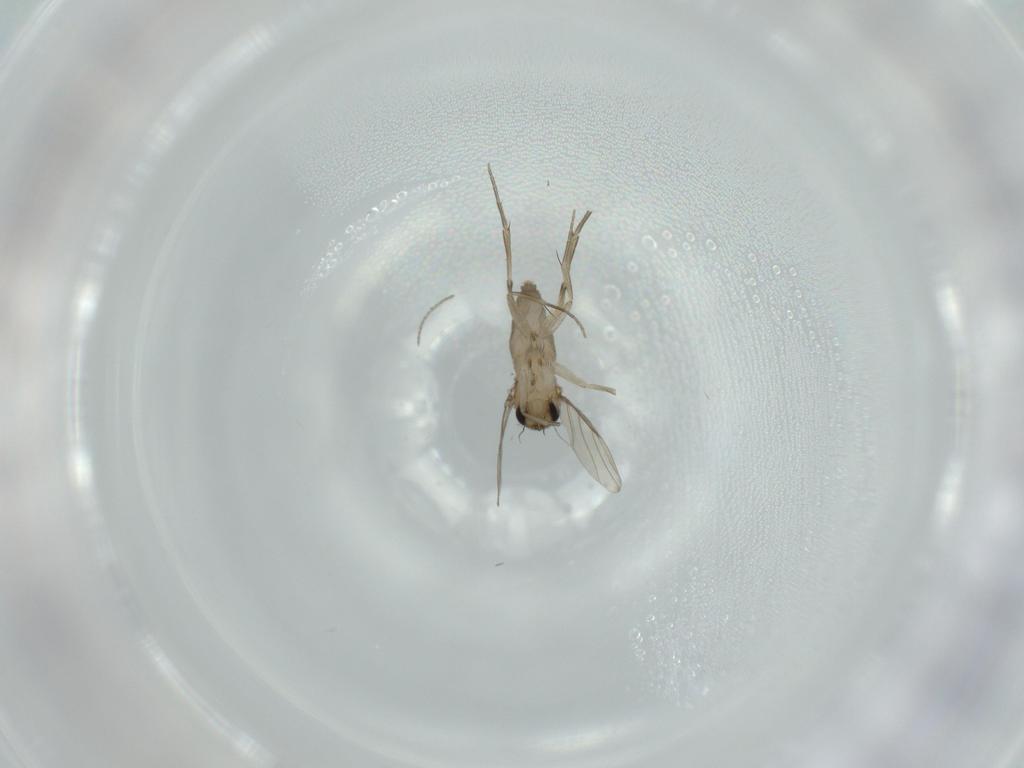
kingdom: Animalia
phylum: Arthropoda
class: Insecta
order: Diptera
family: Phoridae
